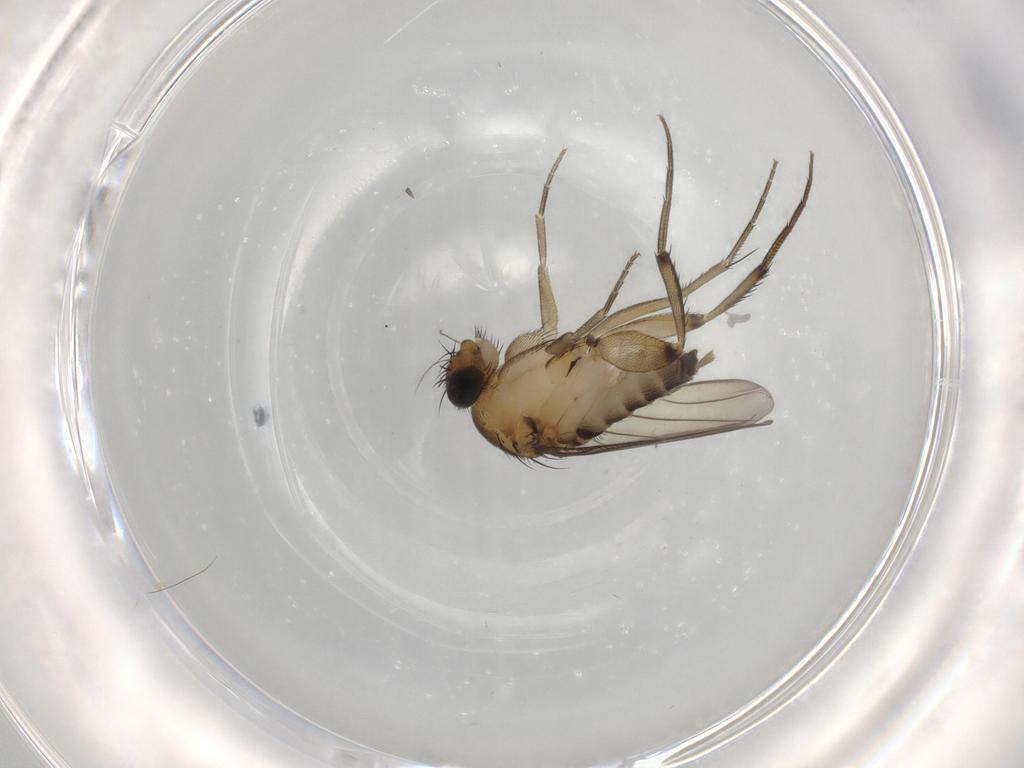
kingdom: Animalia
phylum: Arthropoda
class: Insecta
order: Diptera
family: Phoridae
